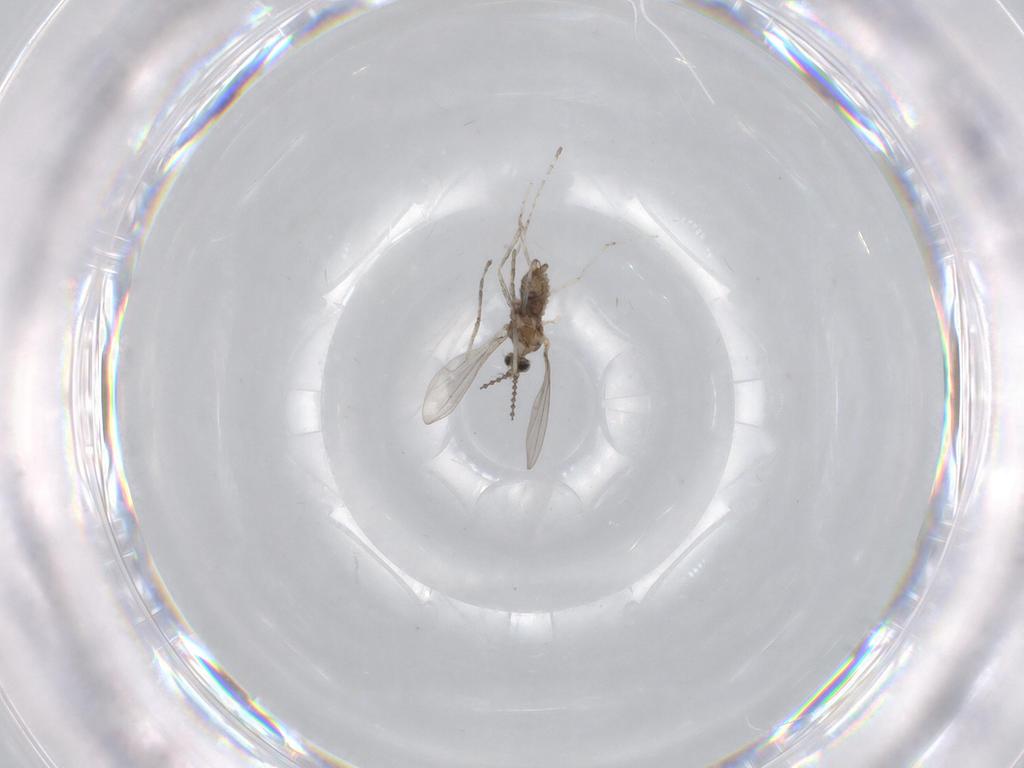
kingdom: Animalia
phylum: Arthropoda
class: Insecta
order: Diptera
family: Cecidomyiidae
